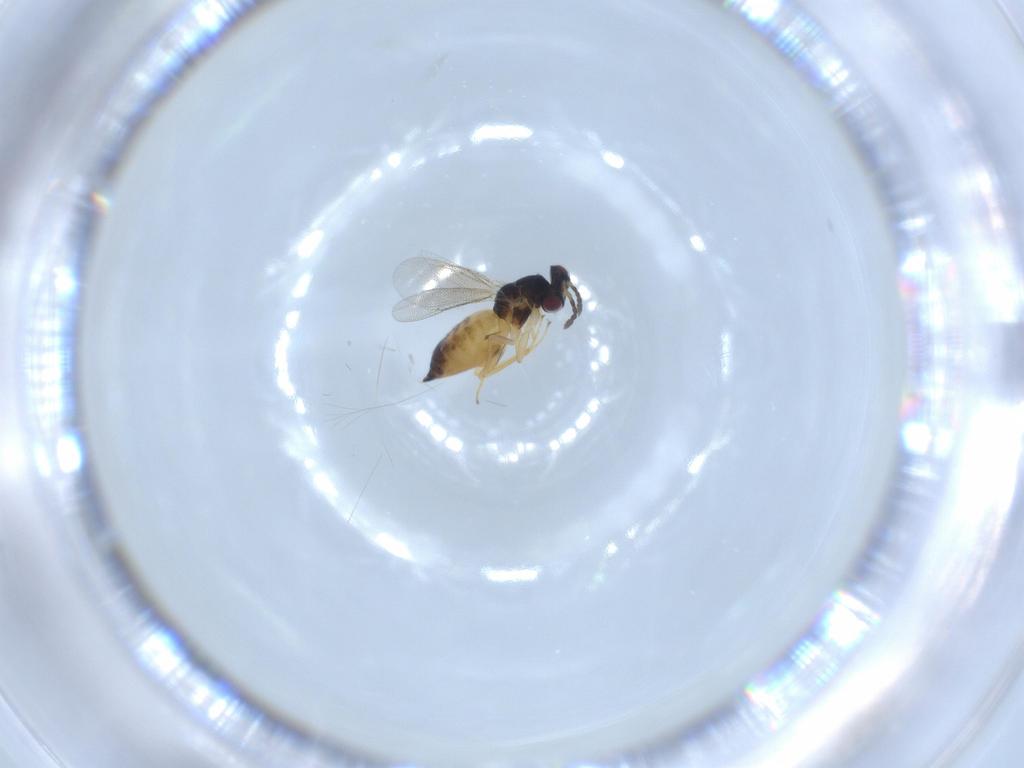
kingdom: Animalia
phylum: Arthropoda
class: Insecta
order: Hymenoptera
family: Eulophidae
